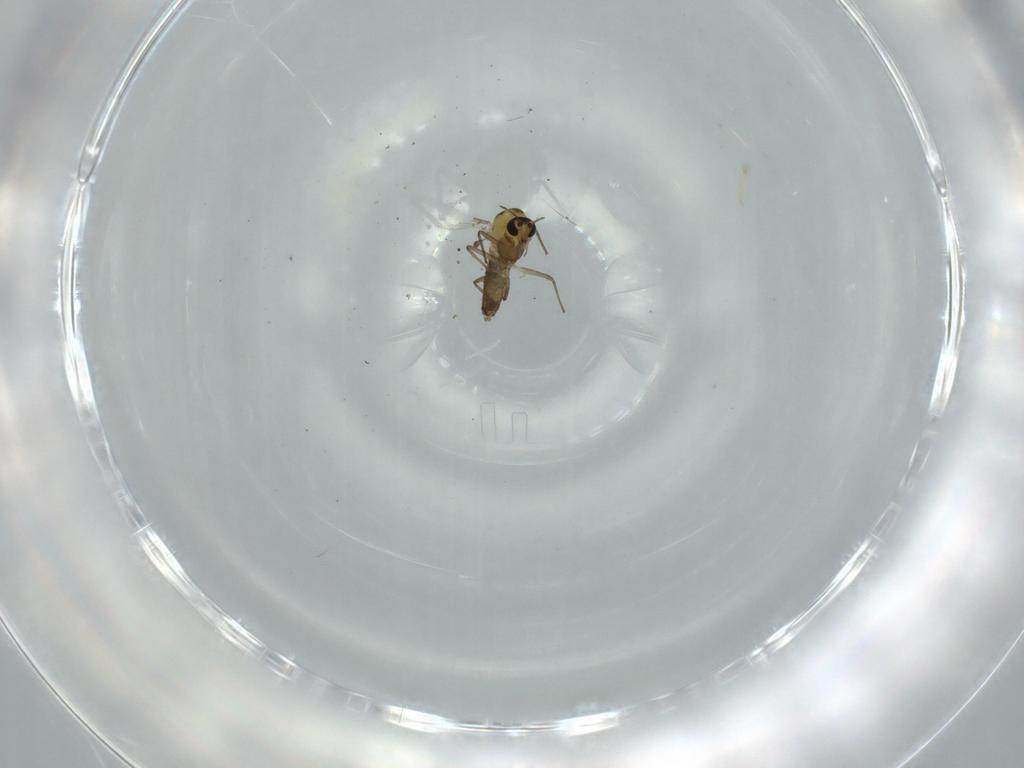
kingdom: Animalia
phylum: Arthropoda
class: Insecta
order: Diptera
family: Chironomidae
